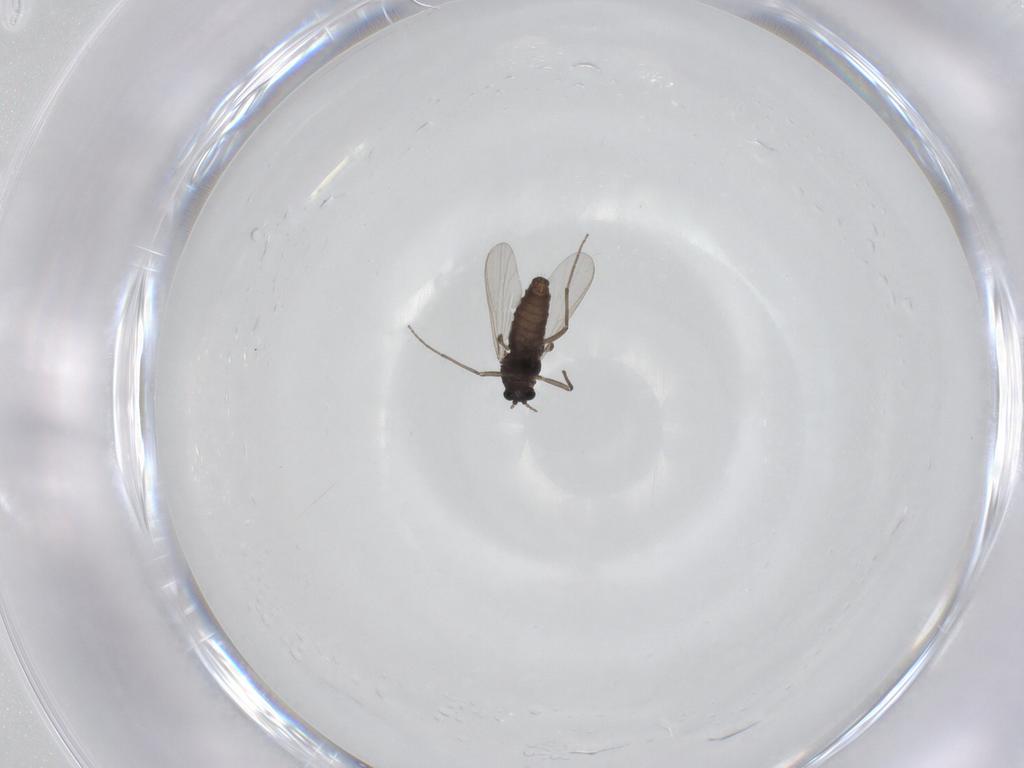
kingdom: Animalia
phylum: Arthropoda
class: Insecta
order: Diptera
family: Chironomidae
